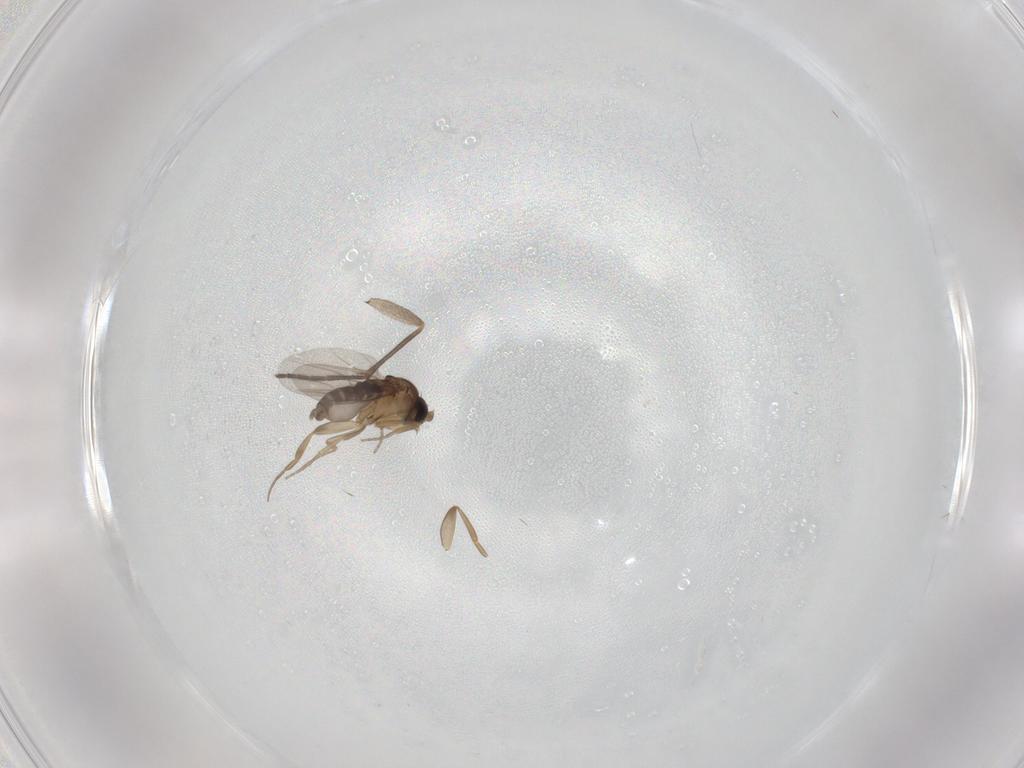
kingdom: Animalia
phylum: Arthropoda
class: Insecta
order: Diptera
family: Sciaridae
